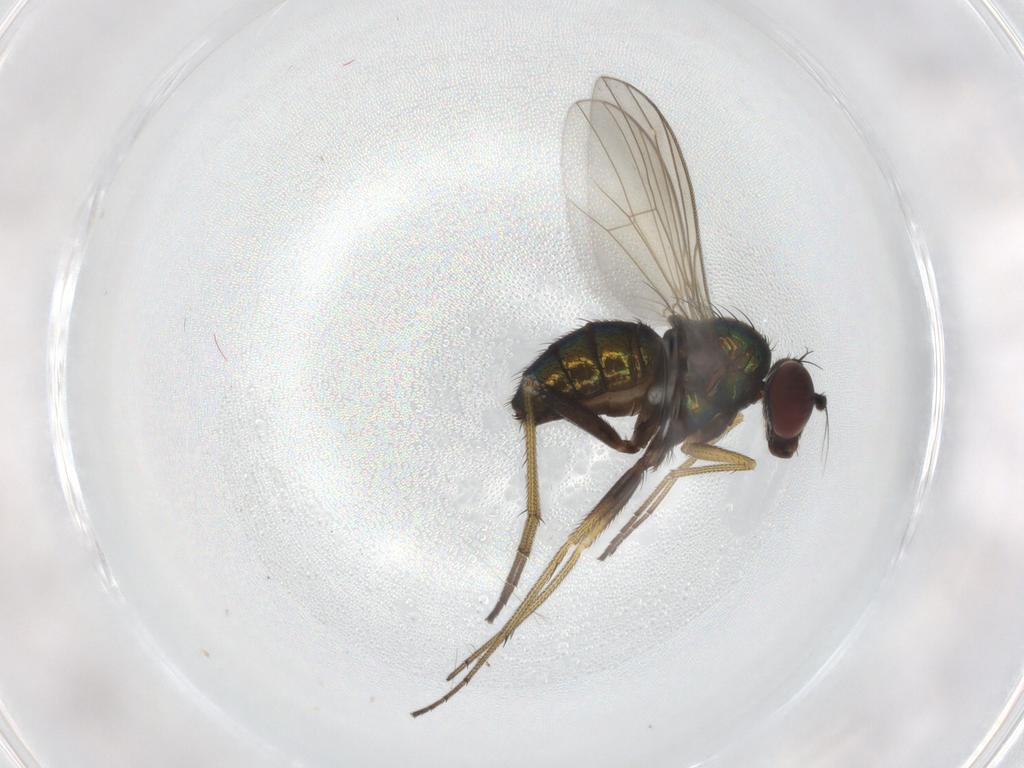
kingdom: Animalia
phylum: Arthropoda
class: Insecta
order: Diptera
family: Dolichopodidae
